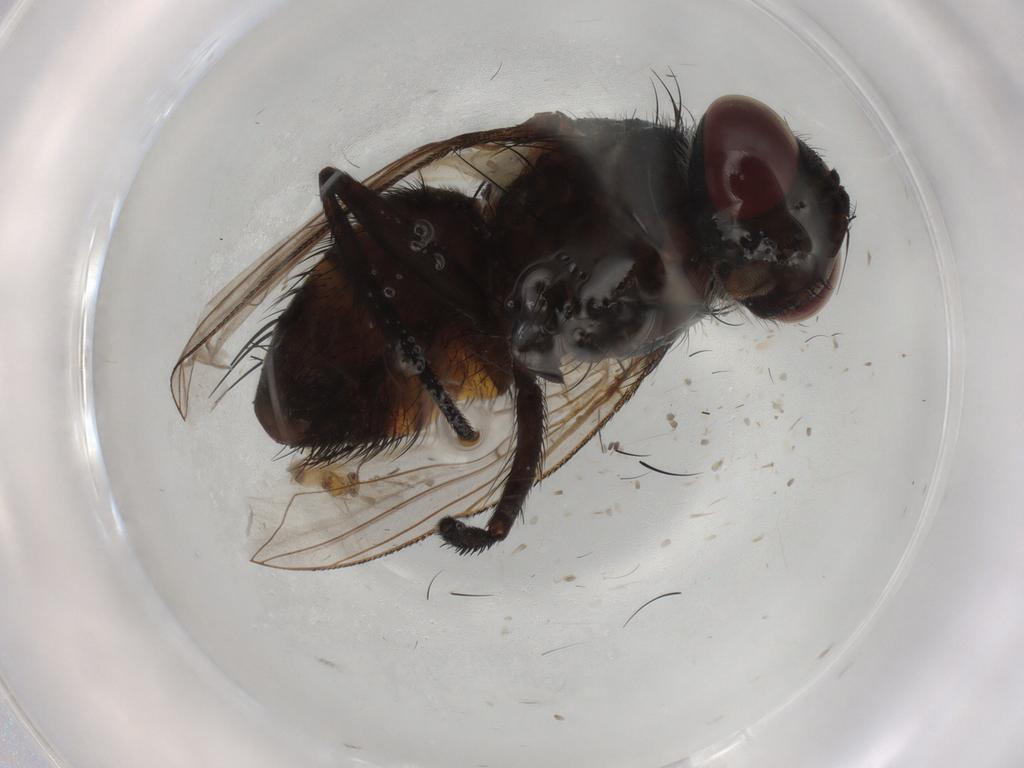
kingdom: Animalia
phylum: Arthropoda
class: Insecta
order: Diptera
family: Tachinidae
